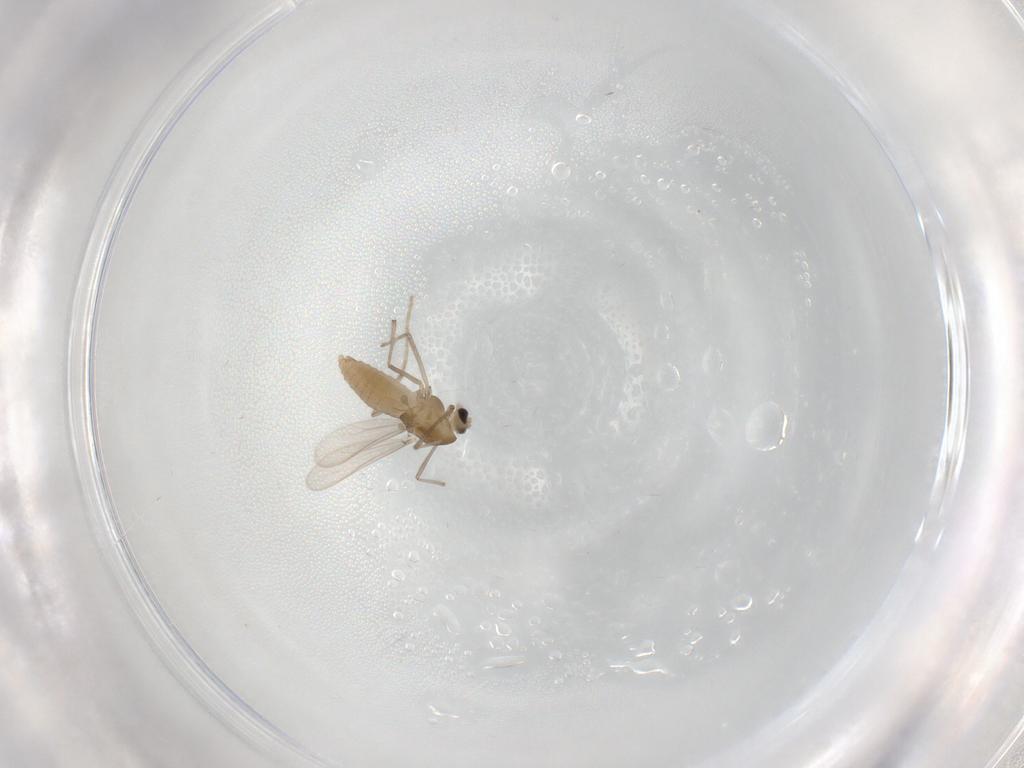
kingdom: Animalia
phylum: Arthropoda
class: Insecta
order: Diptera
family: Chironomidae
